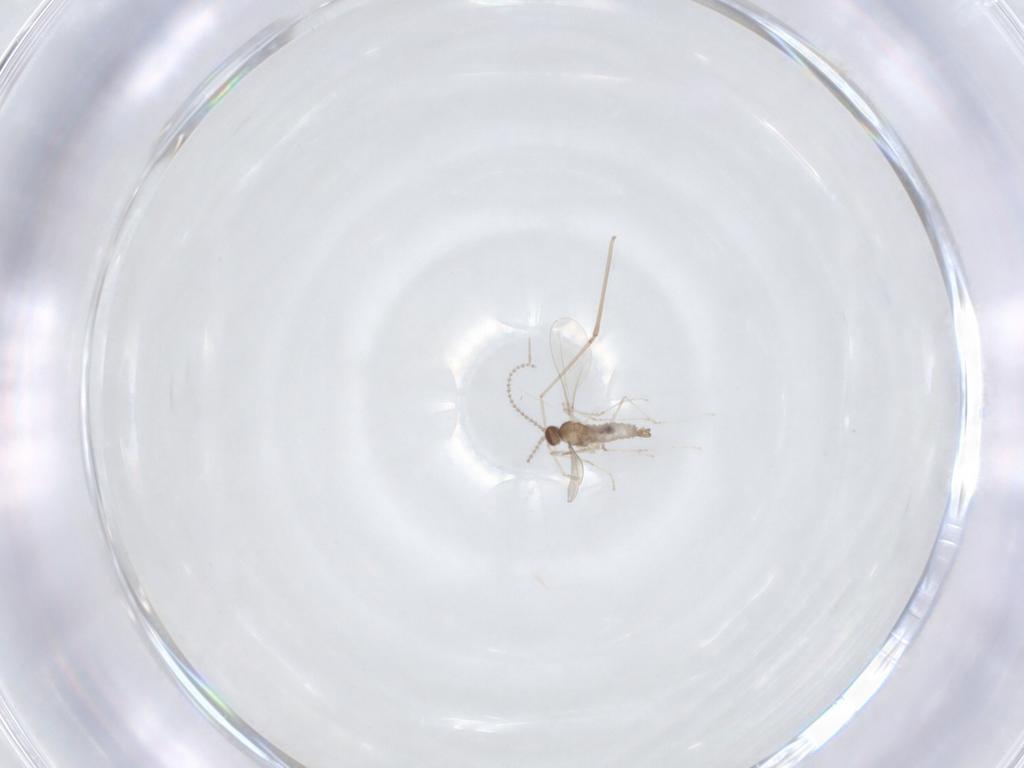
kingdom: Animalia
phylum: Arthropoda
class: Insecta
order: Diptera
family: Cecidomyiidae
